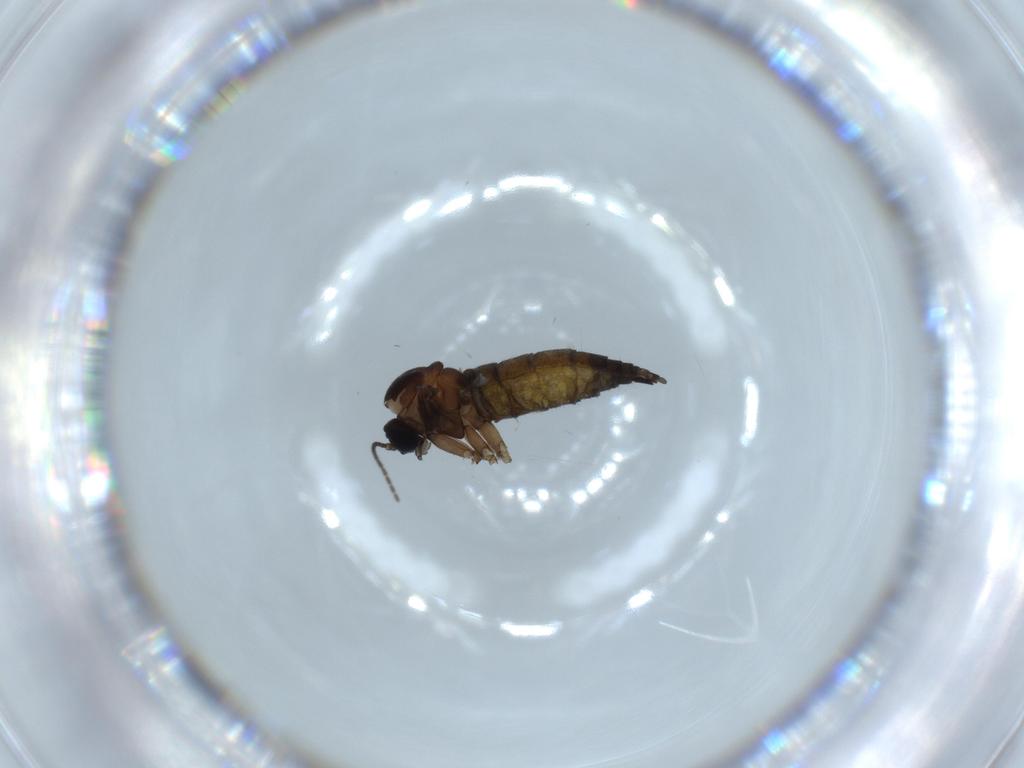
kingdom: Animalia
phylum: Arthropoda
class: Insecta
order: Diptera
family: Sciaridae
